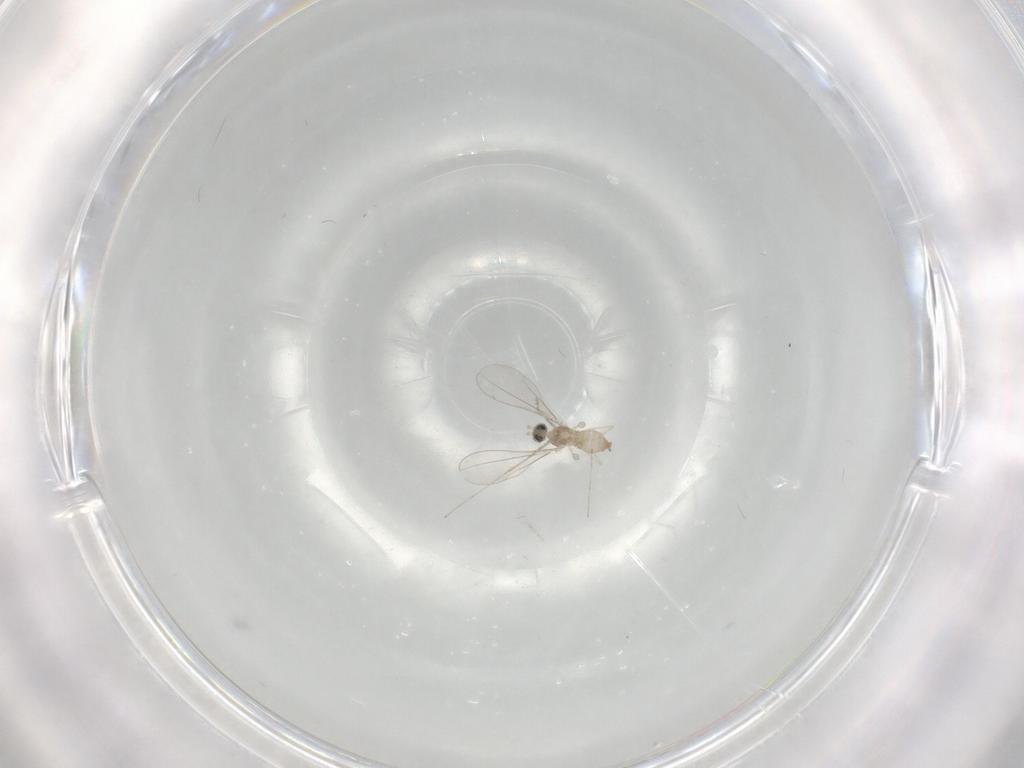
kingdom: Animalia
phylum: Arthropoda
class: Insecta
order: Diptera
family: Cecidomyiidae
